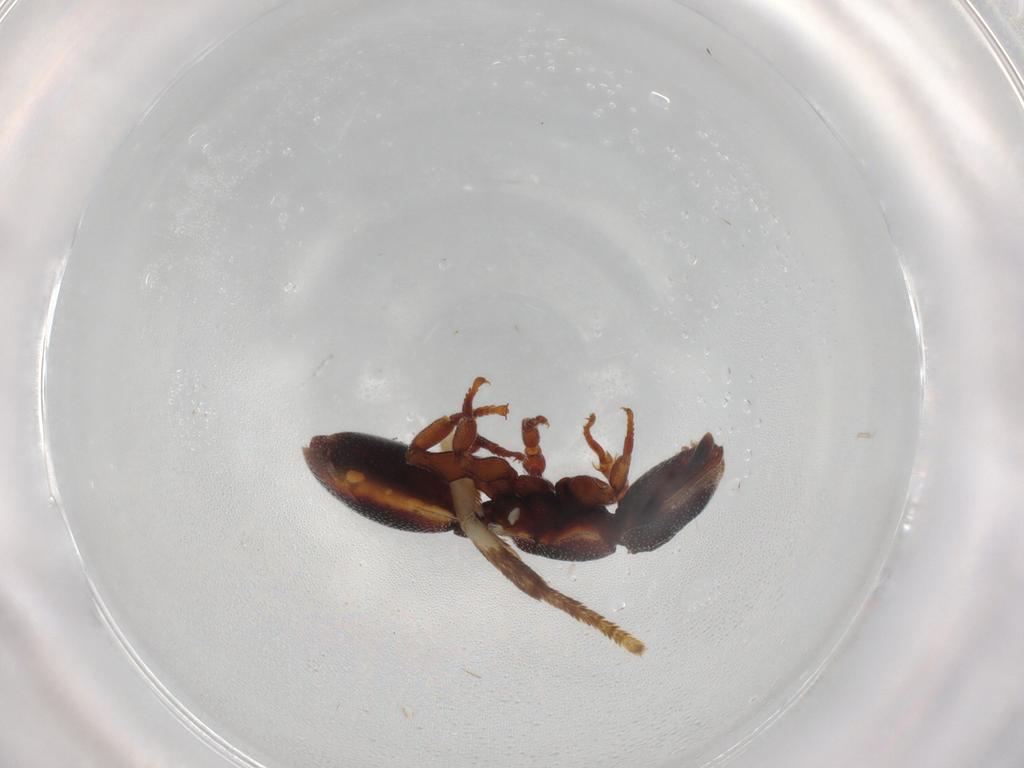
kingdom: Animalia
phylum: Arthropoda
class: Insecta
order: Hymenoptera
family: Formicidae
